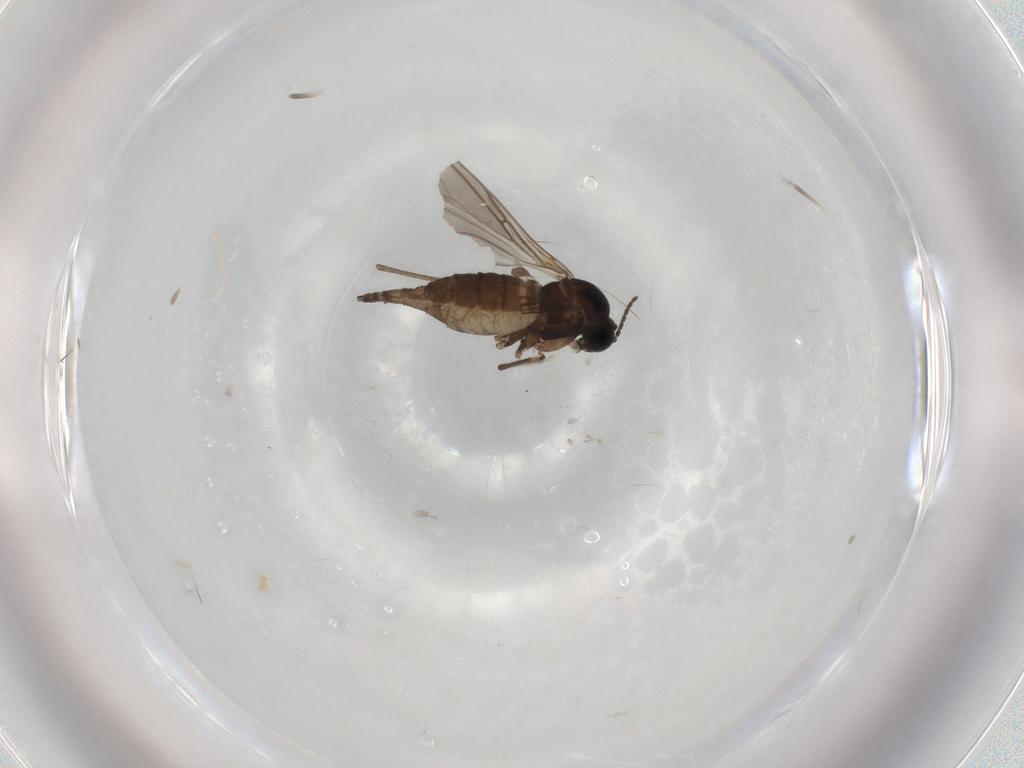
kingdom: Animalia
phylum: Arthropoda
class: Insecta
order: Diptera
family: Sciaridae
